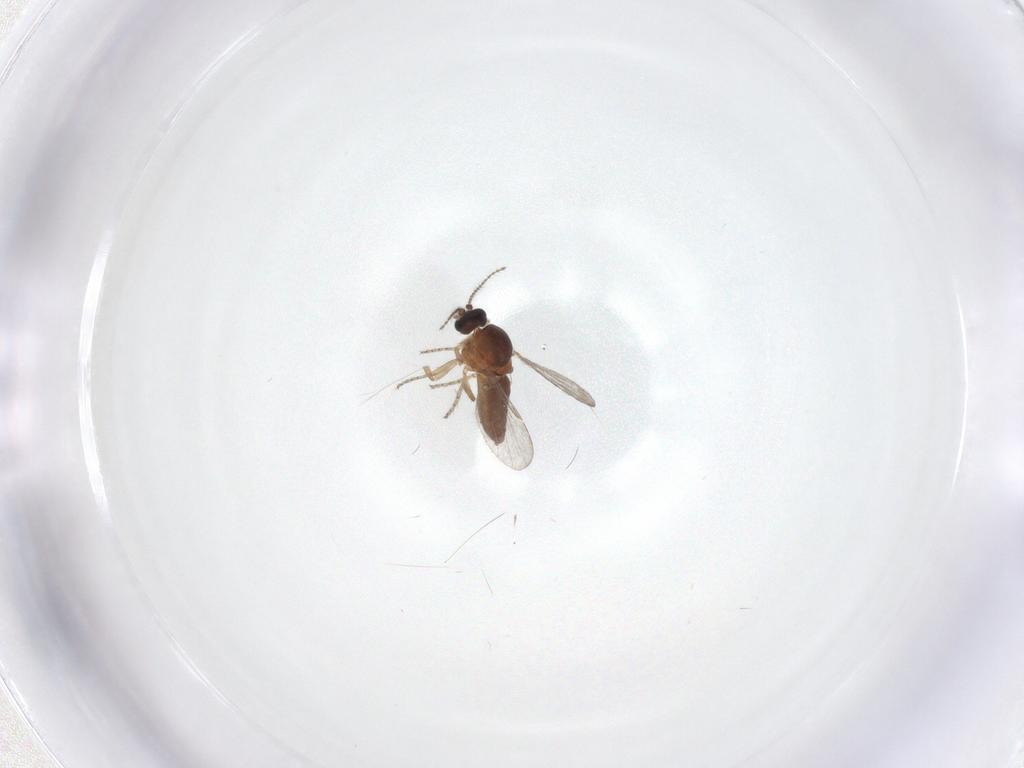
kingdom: Animalia
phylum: Arthropoda
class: Insecta
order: Diptera
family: Ceratopogonidae
